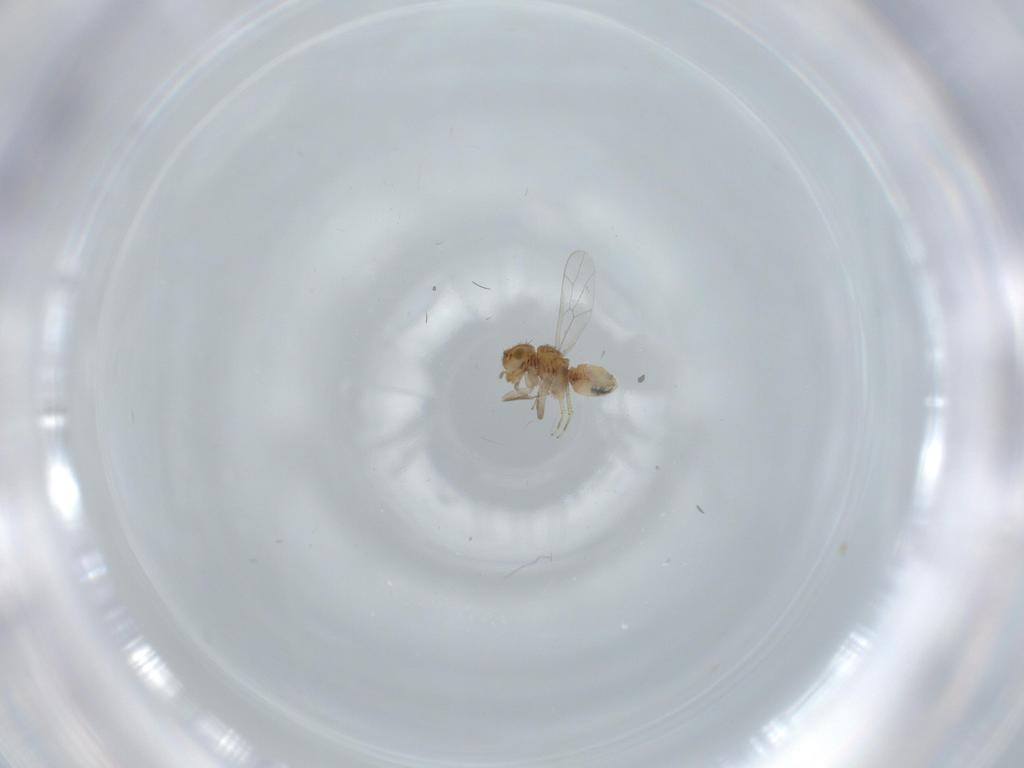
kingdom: Animalia
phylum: Arthropoda
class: Insecta
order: Psocodea
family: Ectopsocidae
